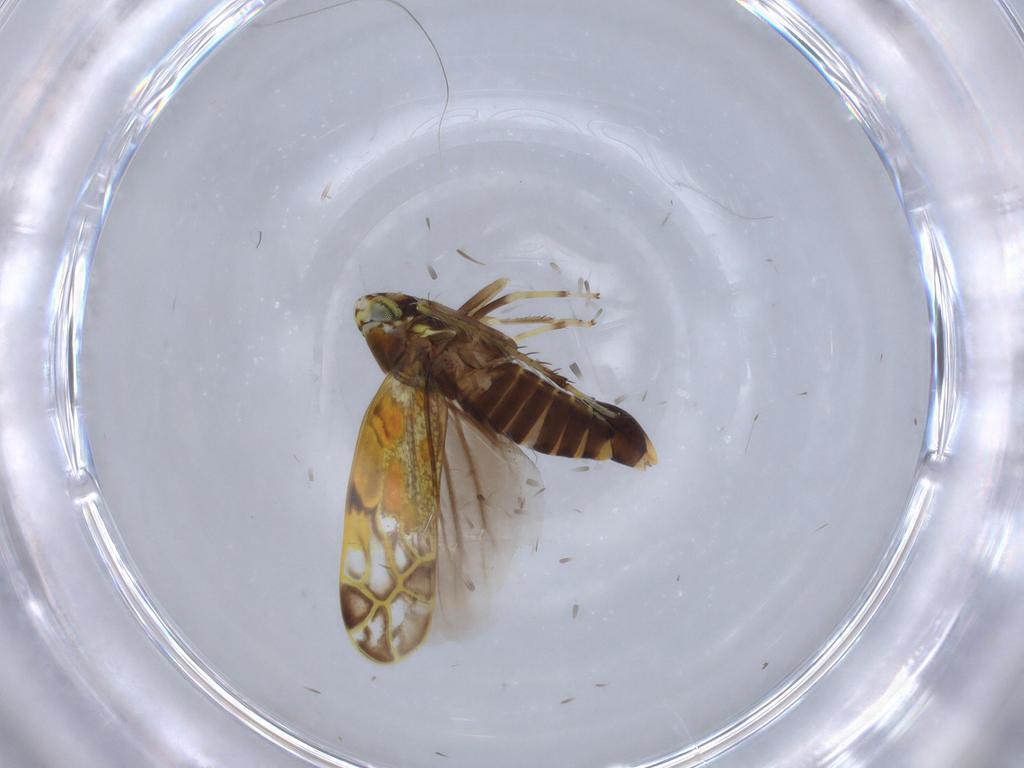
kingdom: Animalia
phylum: Arthropoda
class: Insecta
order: Hemiptera
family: Cicadellidae
